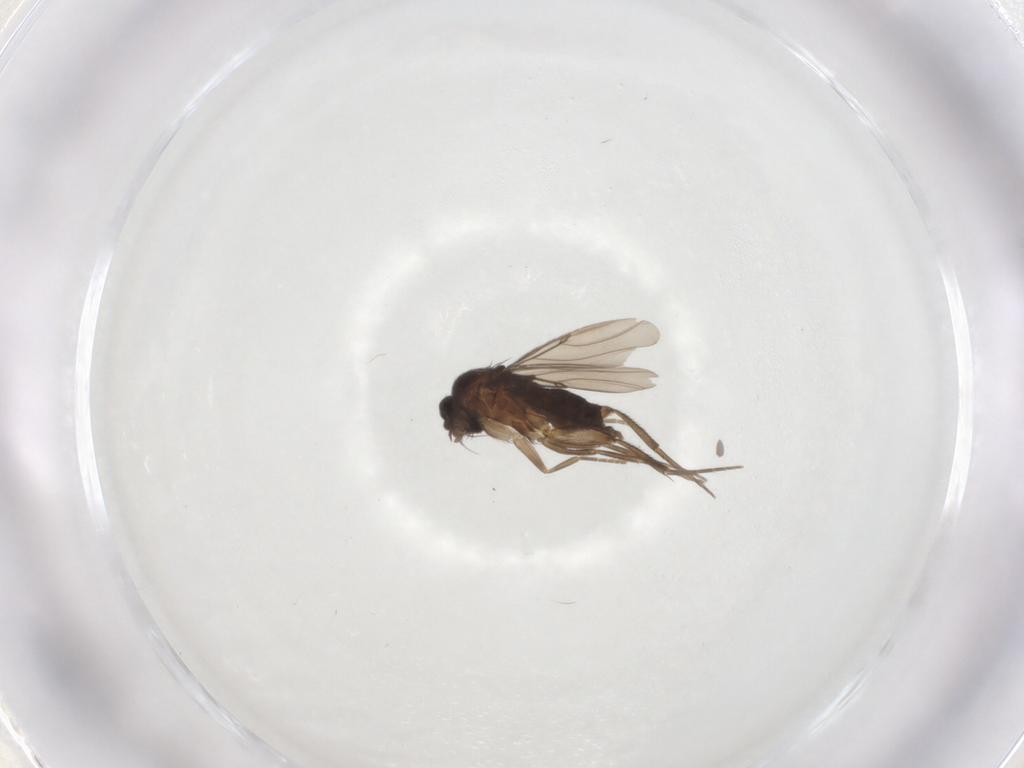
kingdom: Animalia
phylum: Arthropoda
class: Insecta
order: Diptera
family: Phoridae
